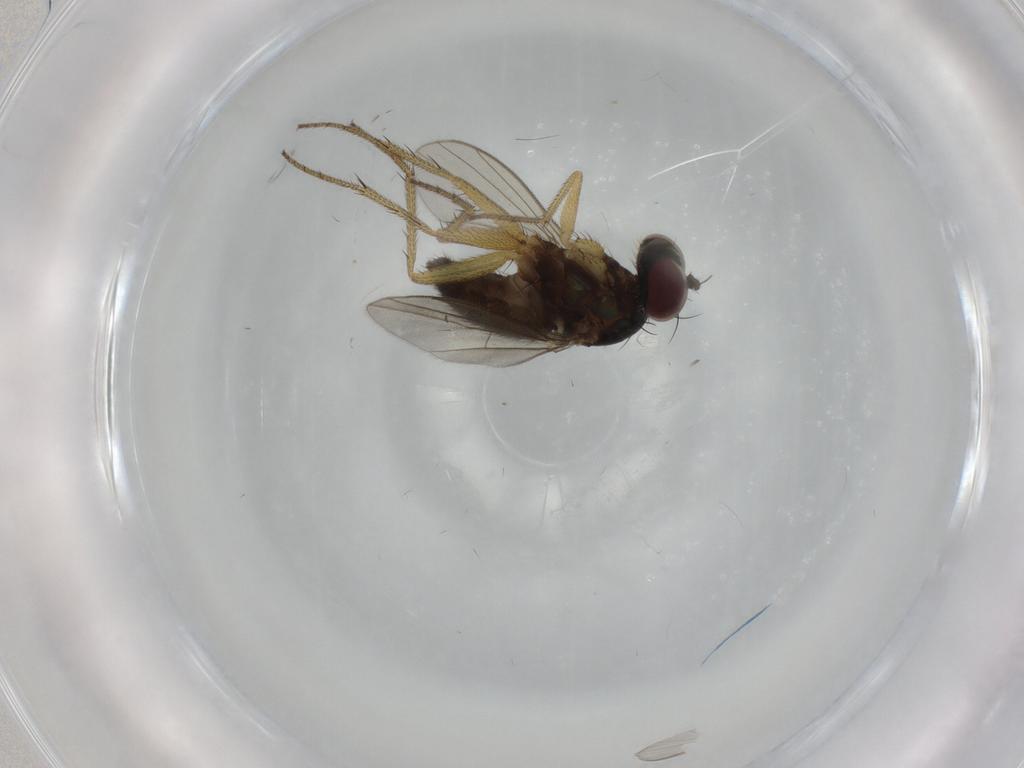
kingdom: Animalia
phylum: Arthropoda
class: Insecta
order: Diptera
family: Dolichopodidae
